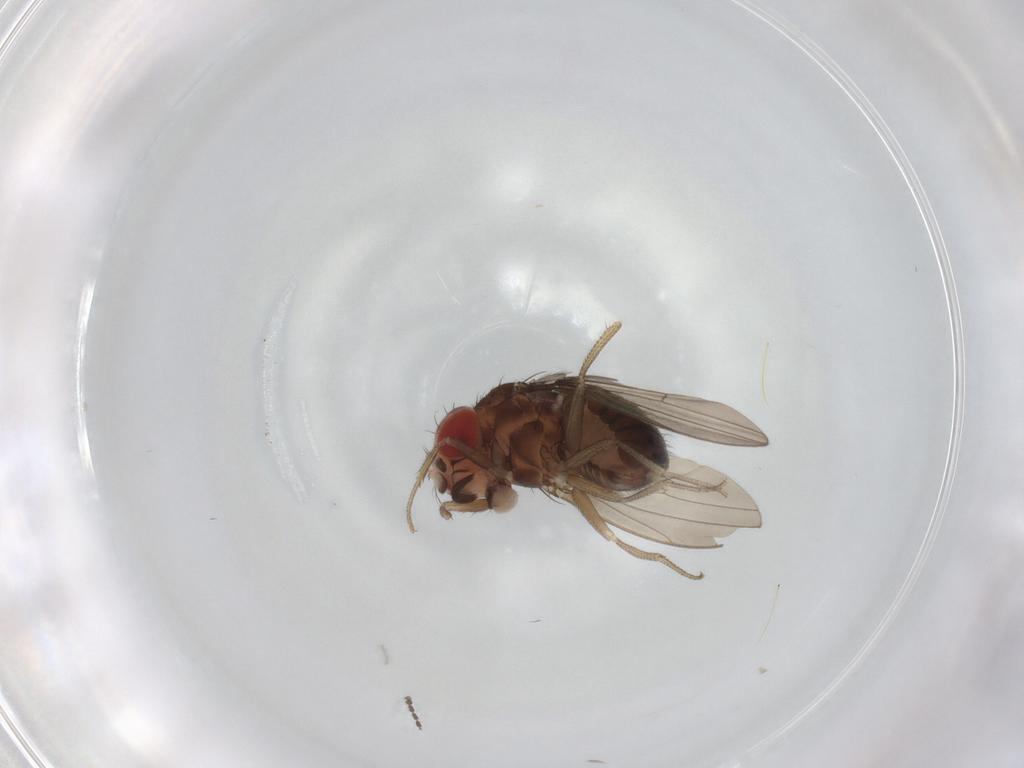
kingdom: Animalia
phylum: Arthropoda
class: Insecta
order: Diptera
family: Drosophilidae
